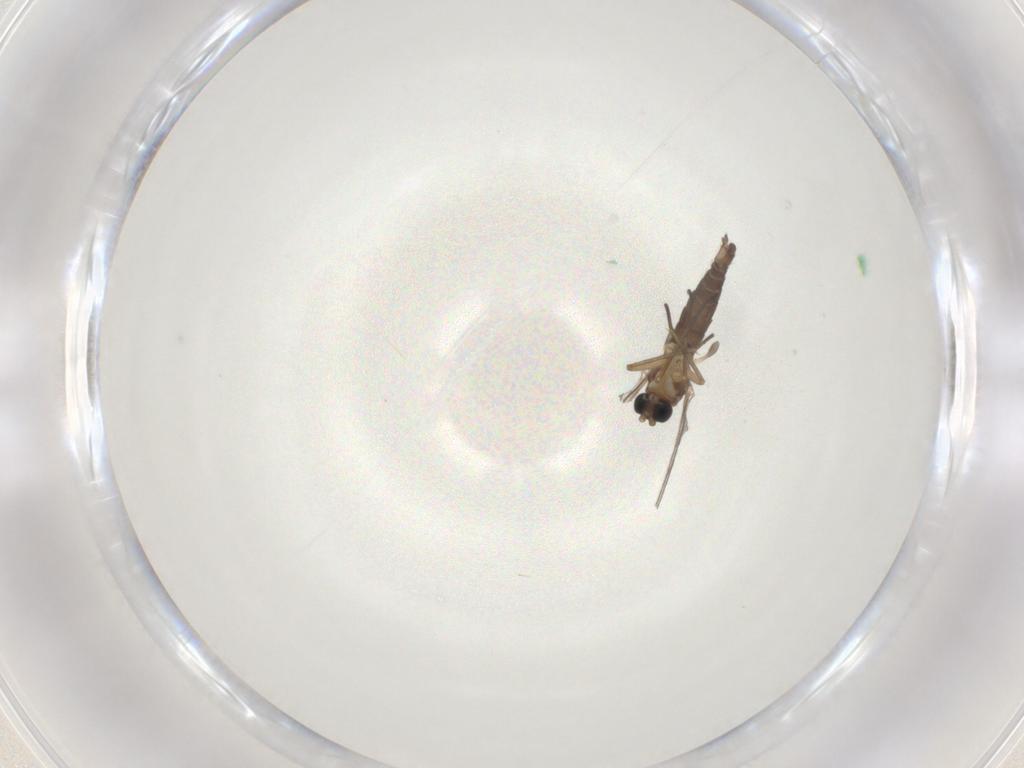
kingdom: Animalia
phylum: Arthropoda
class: Insecta
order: Diptera
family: Sciaridae
